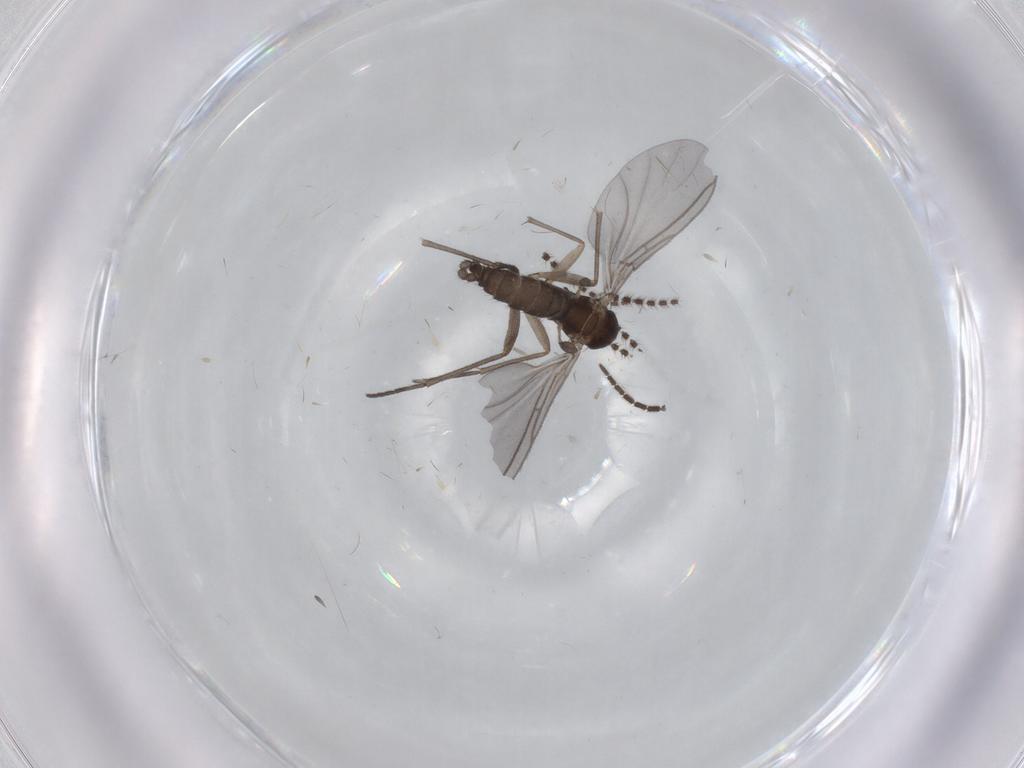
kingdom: Animalia
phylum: Arthropoda
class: Insecta
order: Diptera
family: Sciaridae
